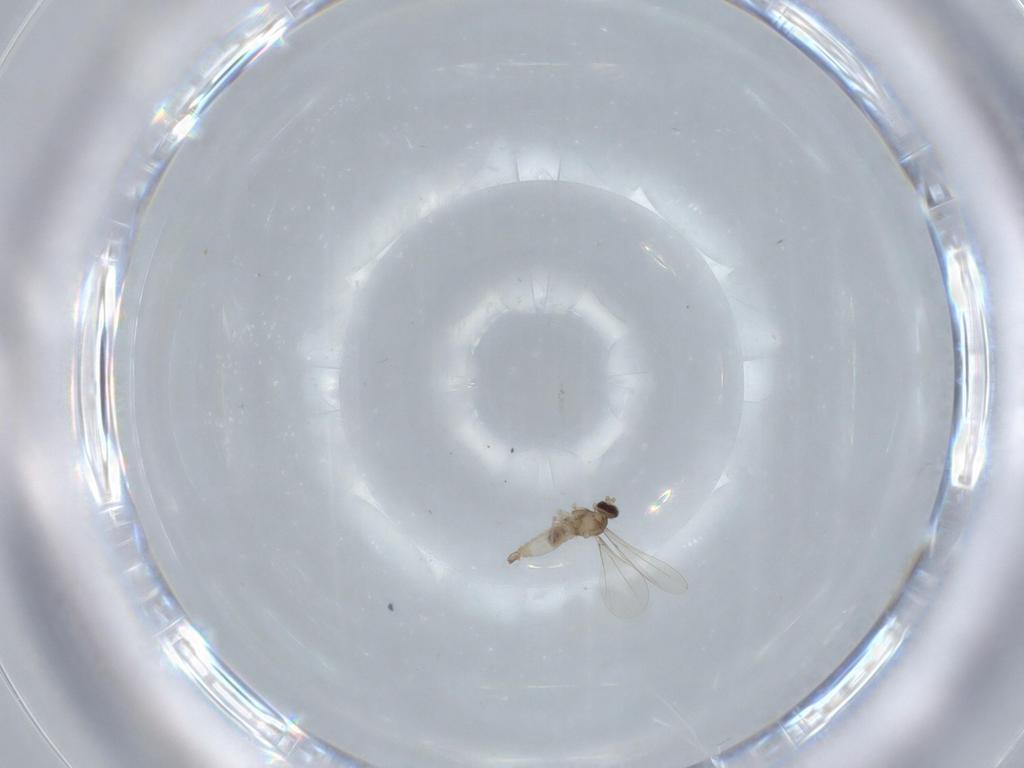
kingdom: Animalia
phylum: Arthropoda
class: Insecta
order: Diptera
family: Cecidomyiidae
